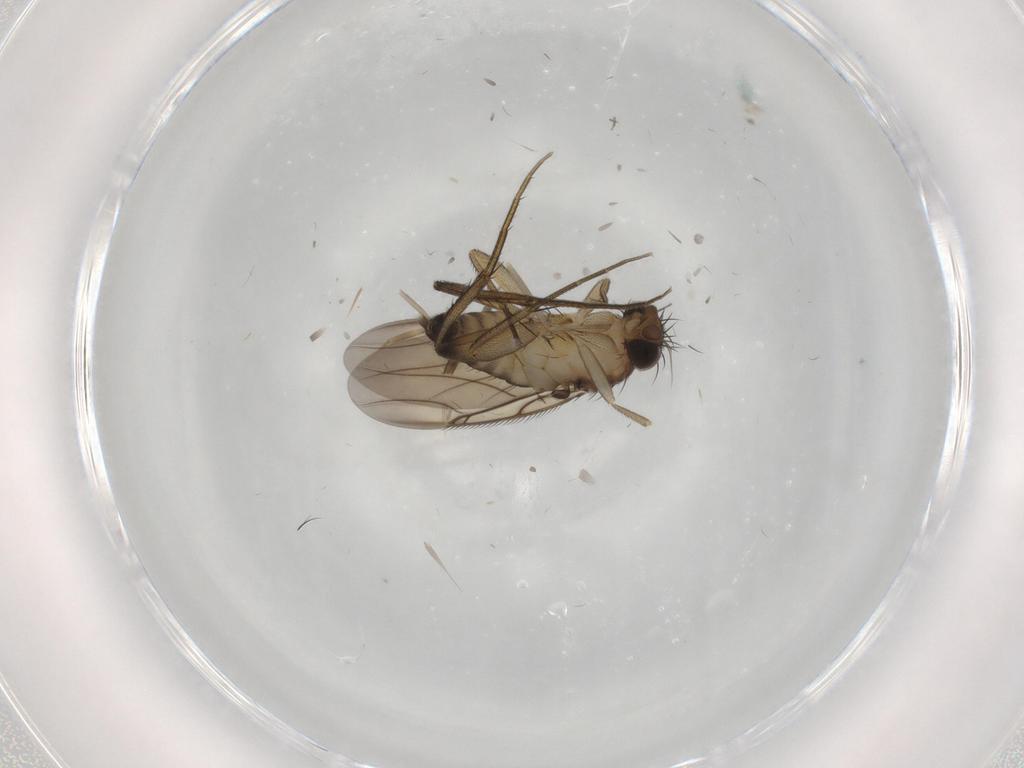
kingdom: Animalia
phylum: Arthropoda
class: Insecta
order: Diptera
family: Chironomidae
